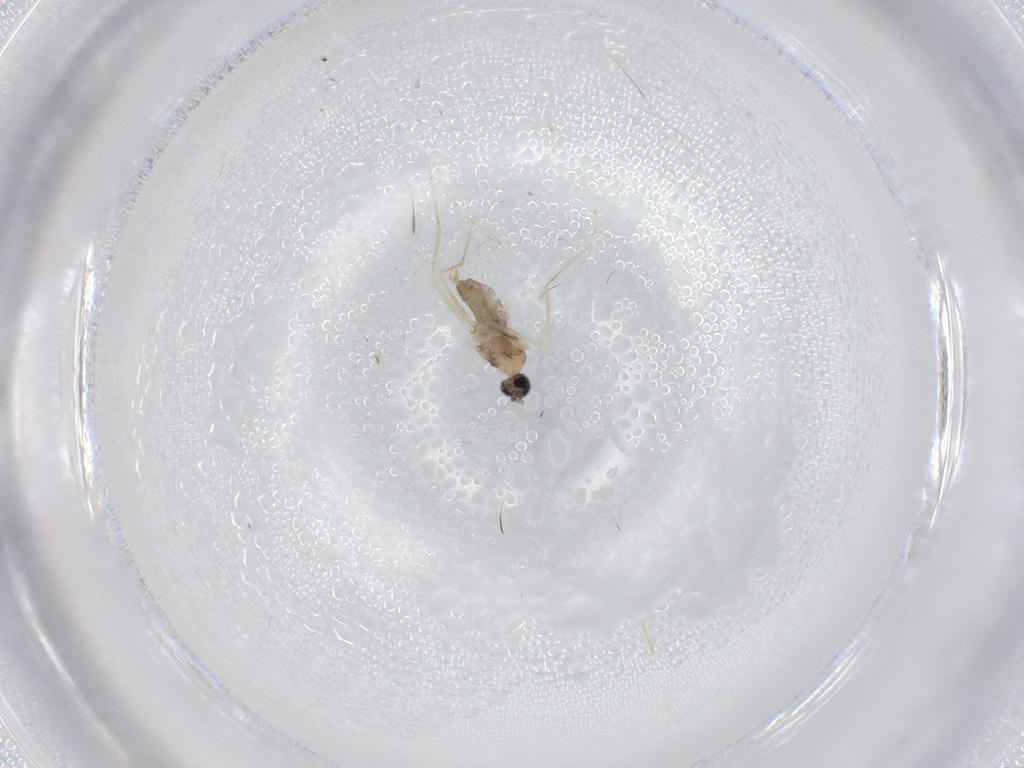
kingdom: Animalia
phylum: Arthropoda
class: Insecta
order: Diptera
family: Cecidomyiidae
